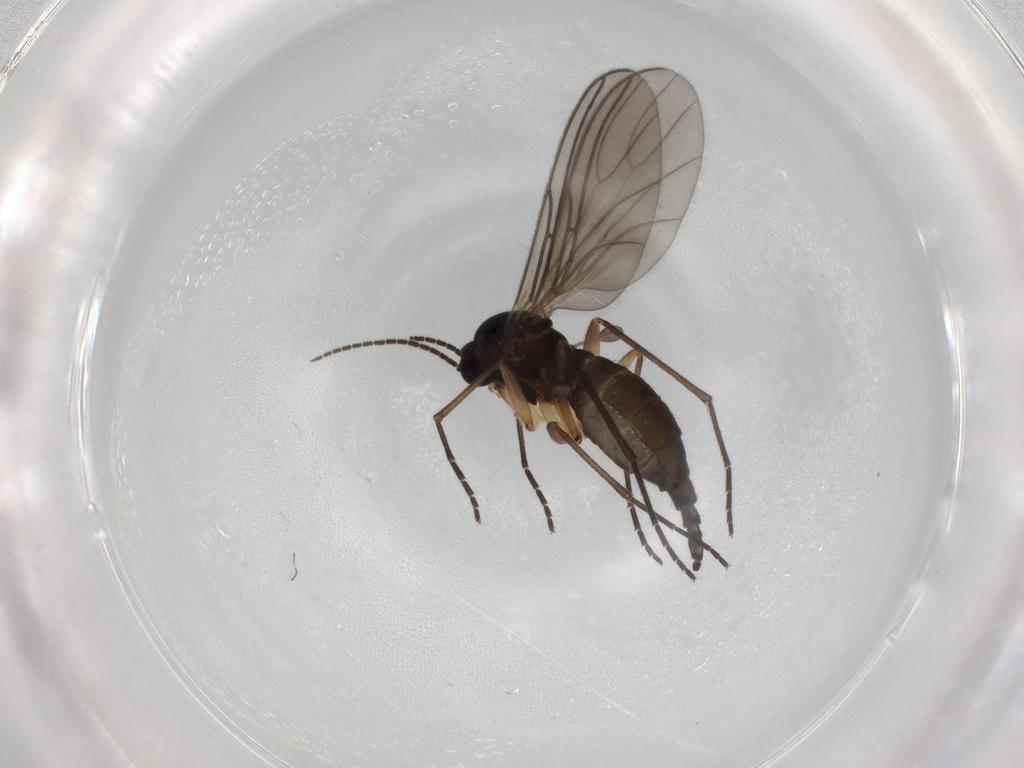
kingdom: Animalia
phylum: Arthropoda
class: Insecta
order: Diptera
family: Sciaridae
